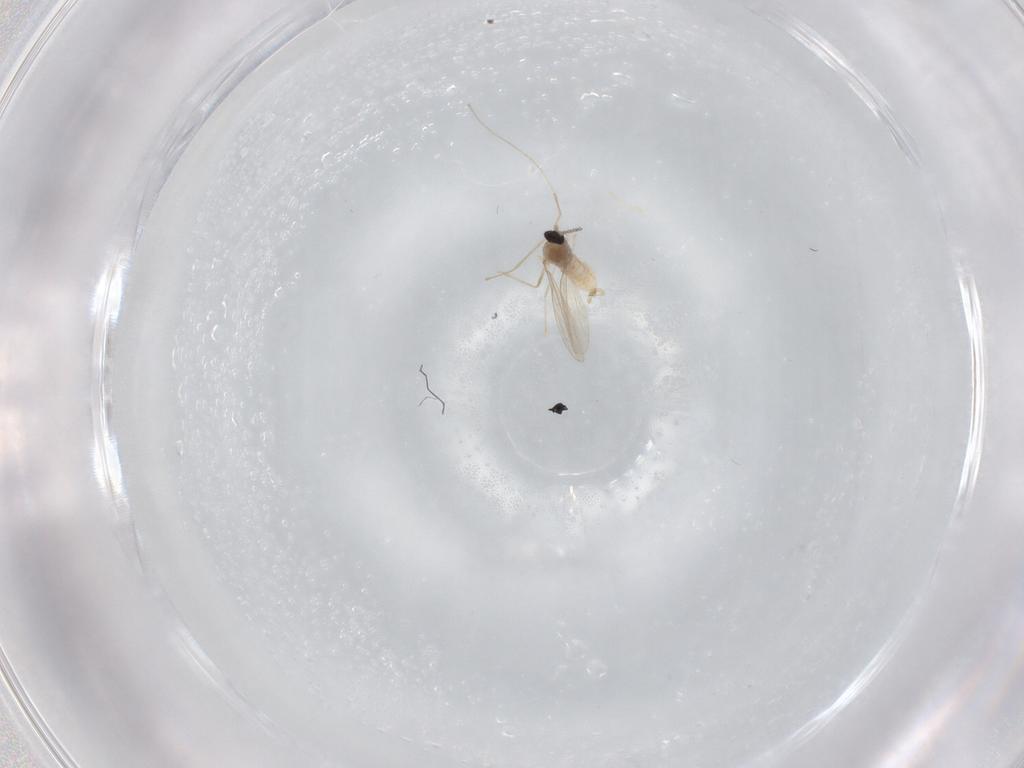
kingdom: Animalia
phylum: Arthropoda
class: Insecta
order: Diptera
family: Cecidomyiidae
